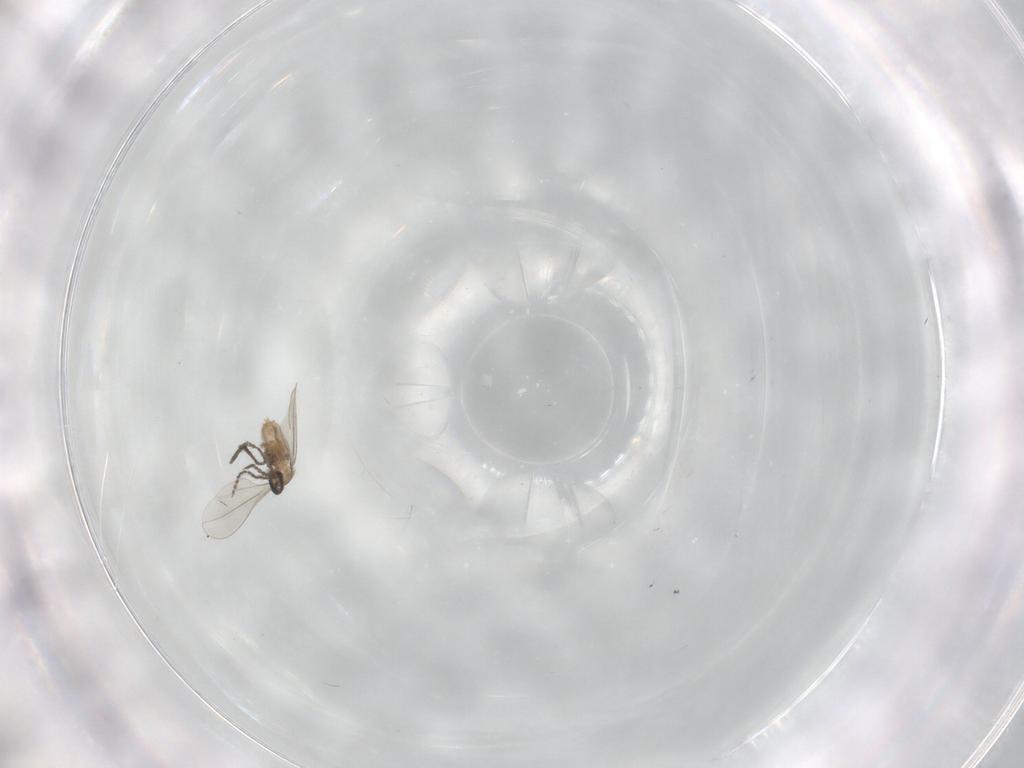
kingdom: Animalia
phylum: Arthropoda
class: Insecta
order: Diptera
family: Cecidomyiidae
